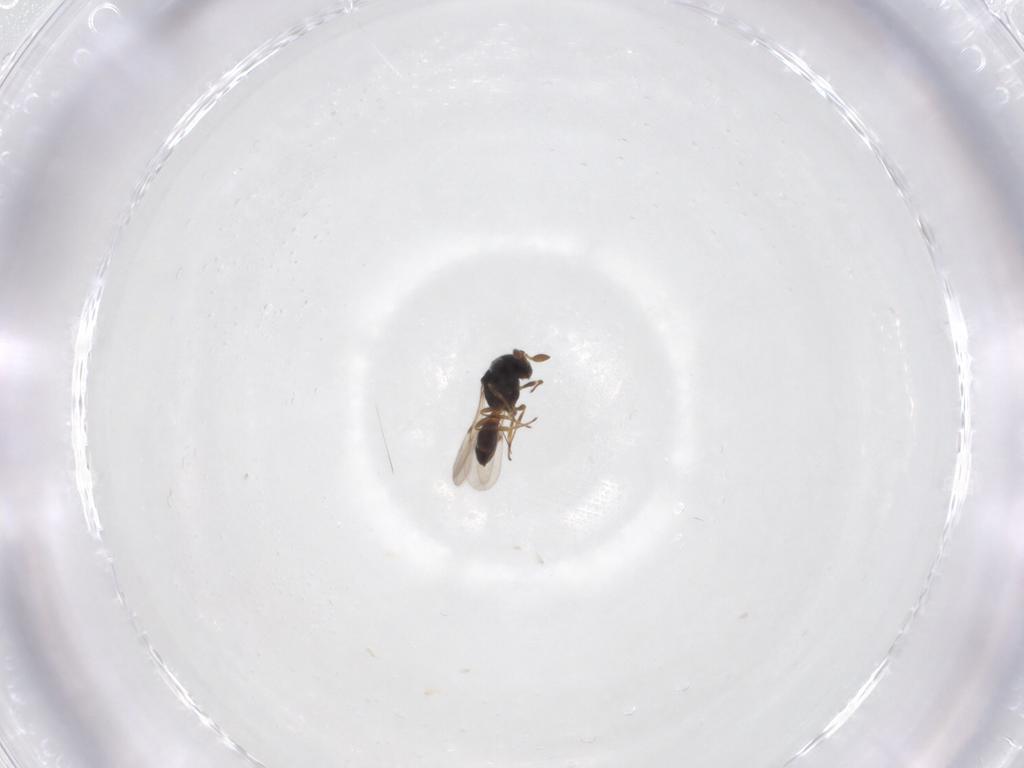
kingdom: Animalia
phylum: Arthropoda
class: Insecta
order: Hymenoptera
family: Scelionidae
